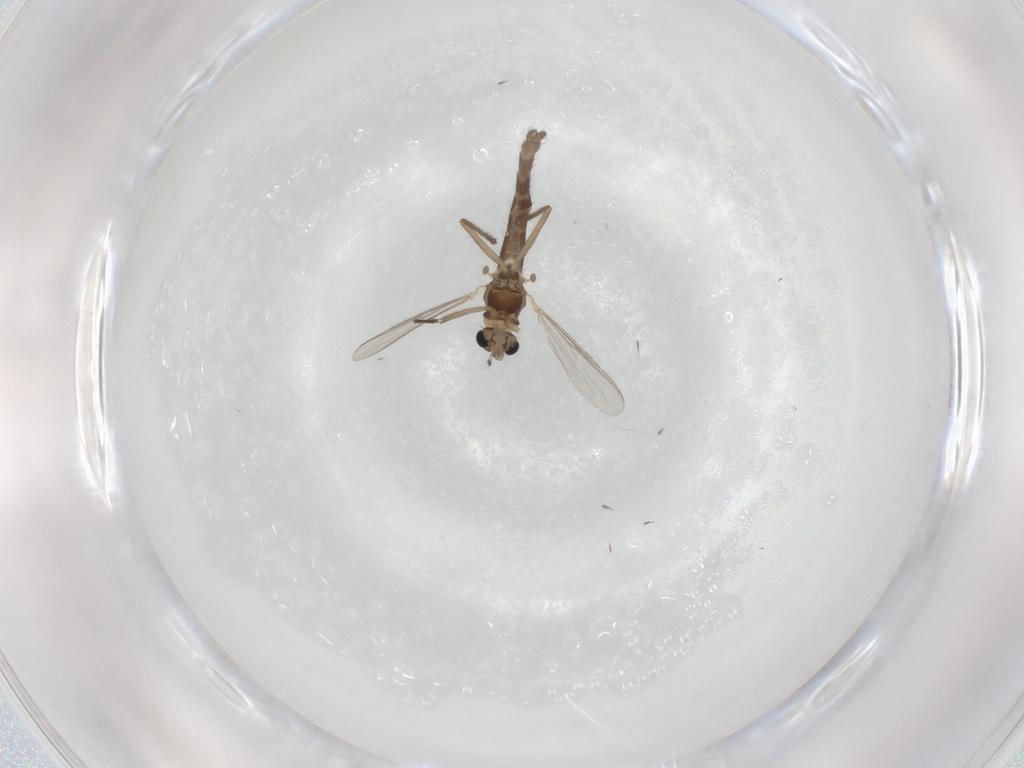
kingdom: Animalia
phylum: Arthropoda
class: Insecta
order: Diptera
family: Chironomidae
